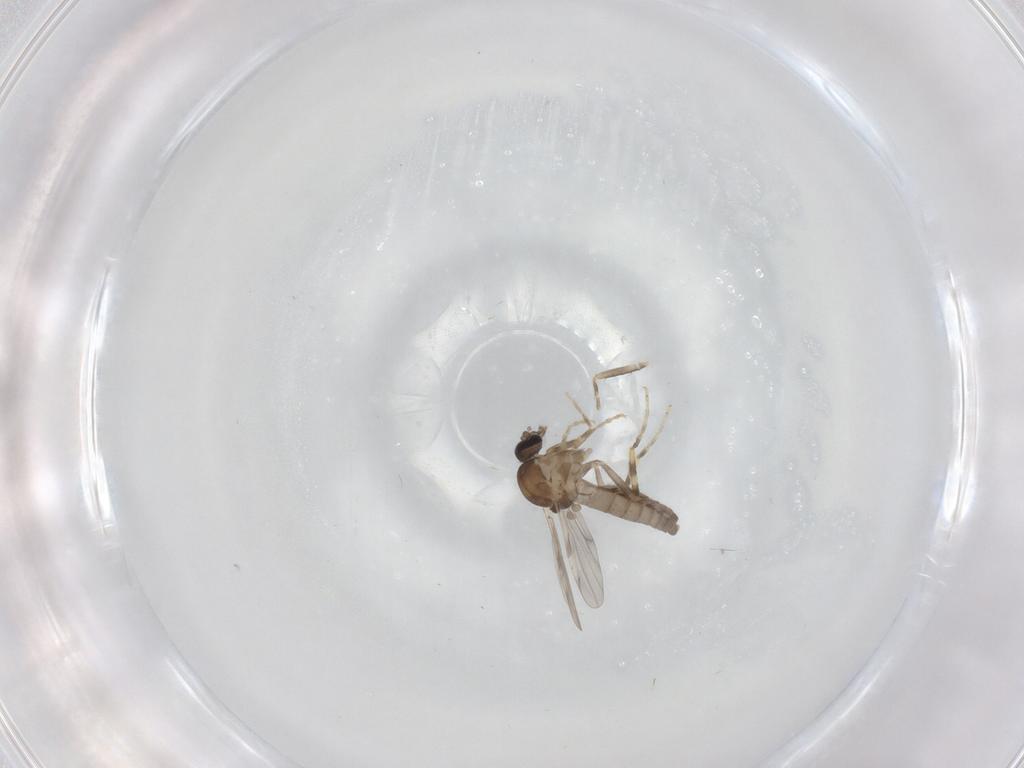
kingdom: Animalia
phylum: Arthropoda
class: Insecta
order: Diptera
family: Ceratopogonidae
